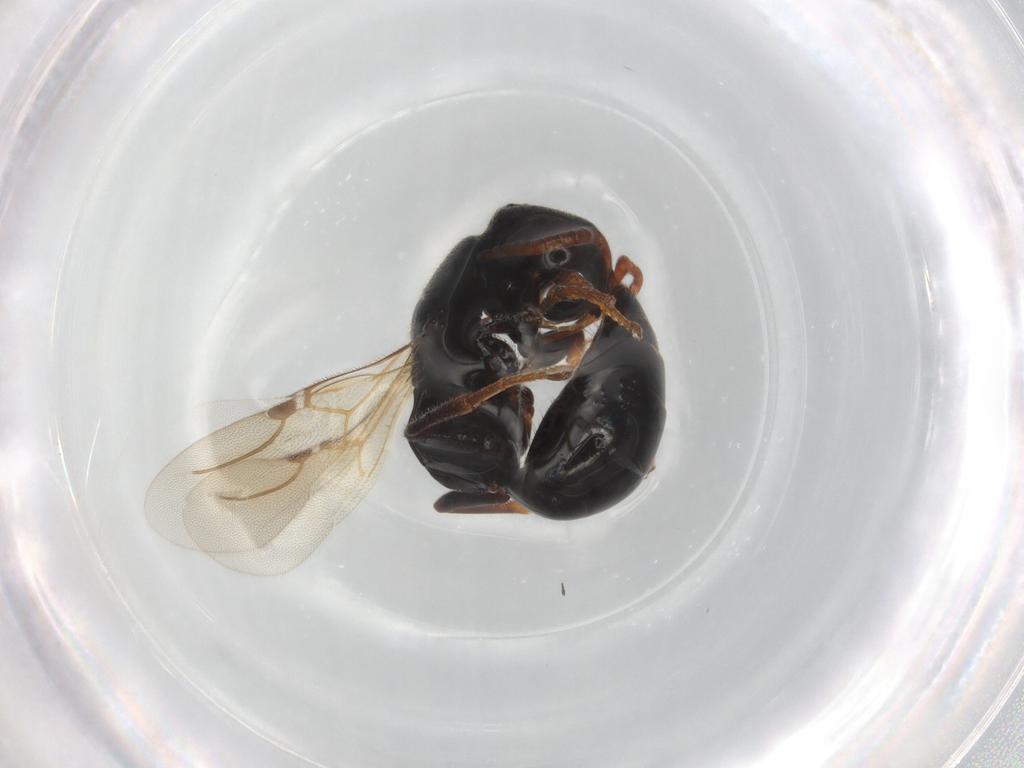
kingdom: Animalia
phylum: Arthropoda
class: Insecta
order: Hymenoptera
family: Bethylidae
